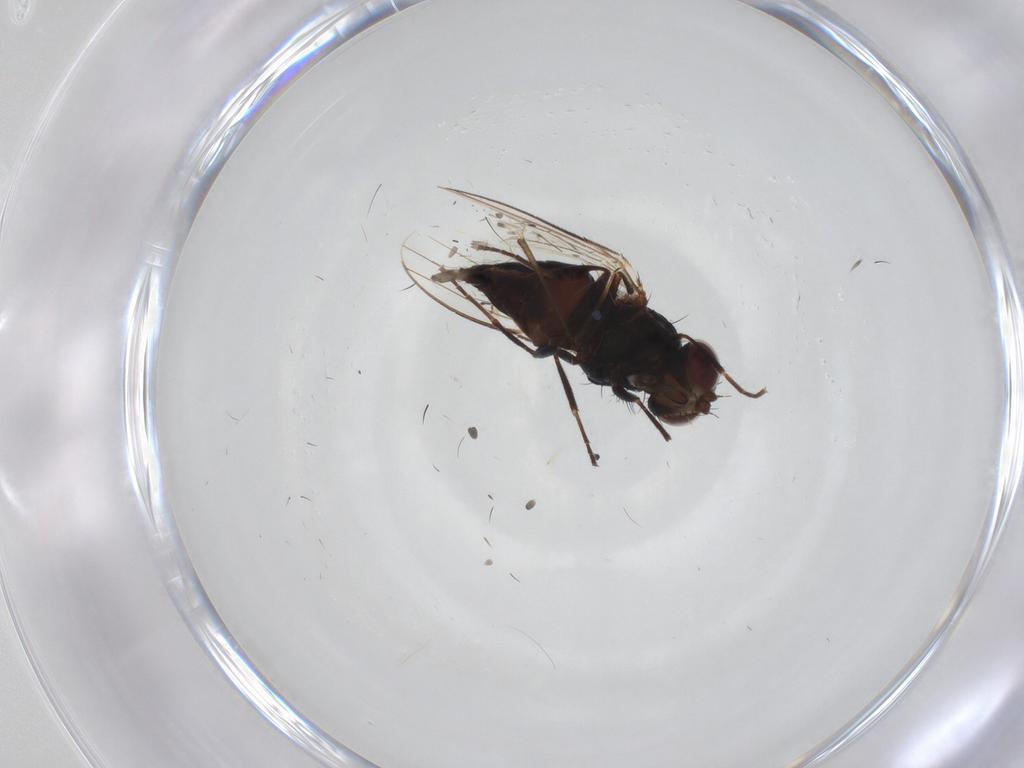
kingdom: Animalia
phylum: Arthropoda
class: Insecta
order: Diptera
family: Carnidae
